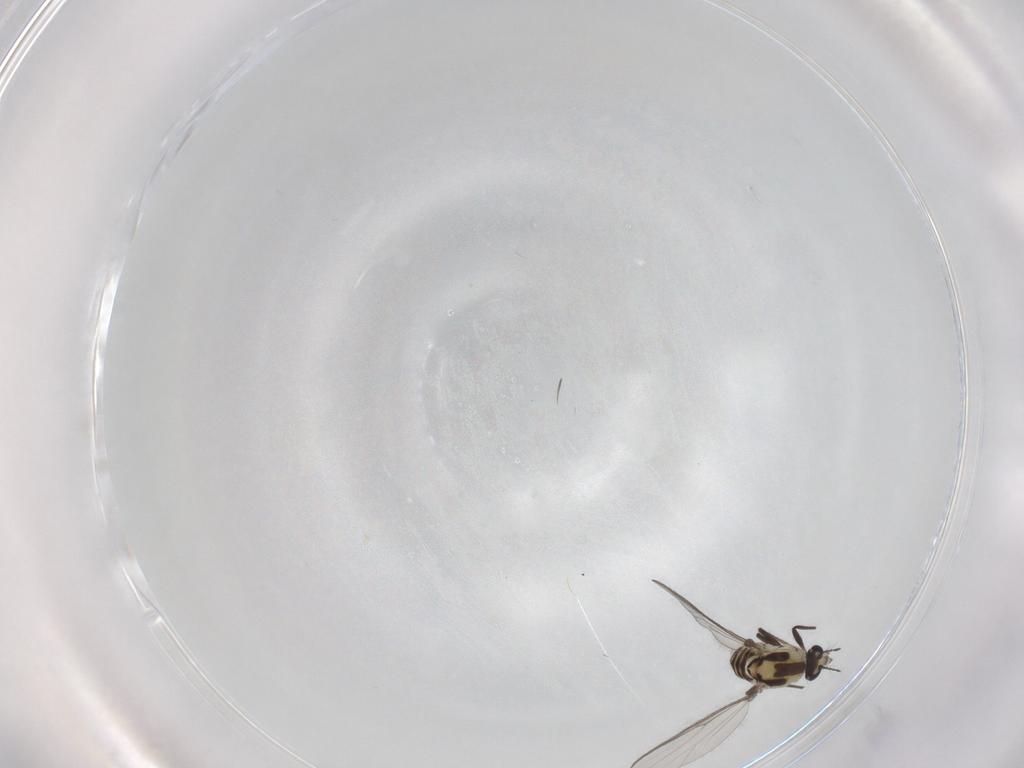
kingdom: Animalia
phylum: Arthropoda
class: Insecta
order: Diptera
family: Chironomidae
